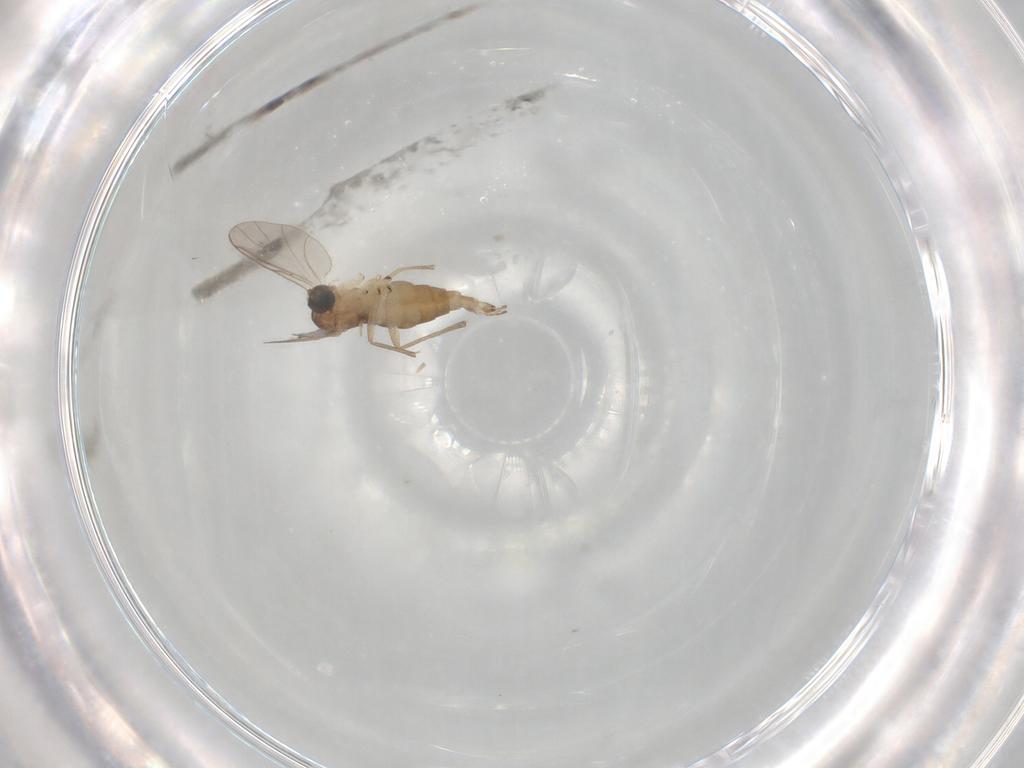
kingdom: Animalia
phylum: Arthropoda
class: Insecta
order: Diptera
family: Sciaridae
